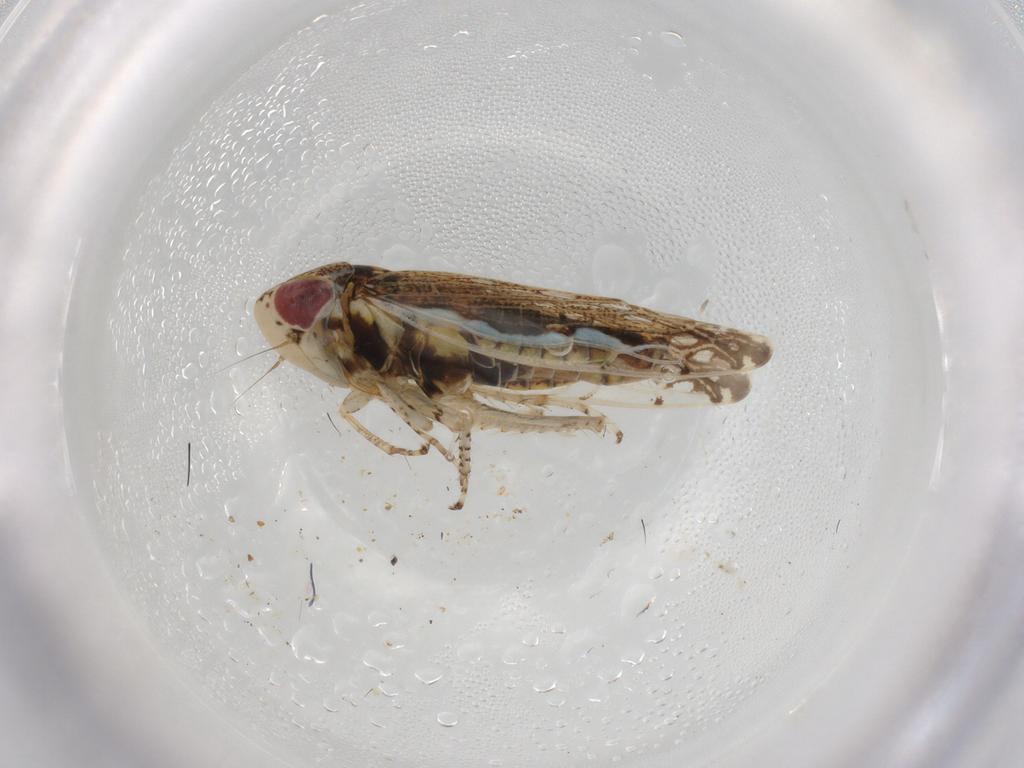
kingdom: Animalia
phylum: Arthropoda
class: Insecta
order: Hemiptera
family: Cicadellidae
